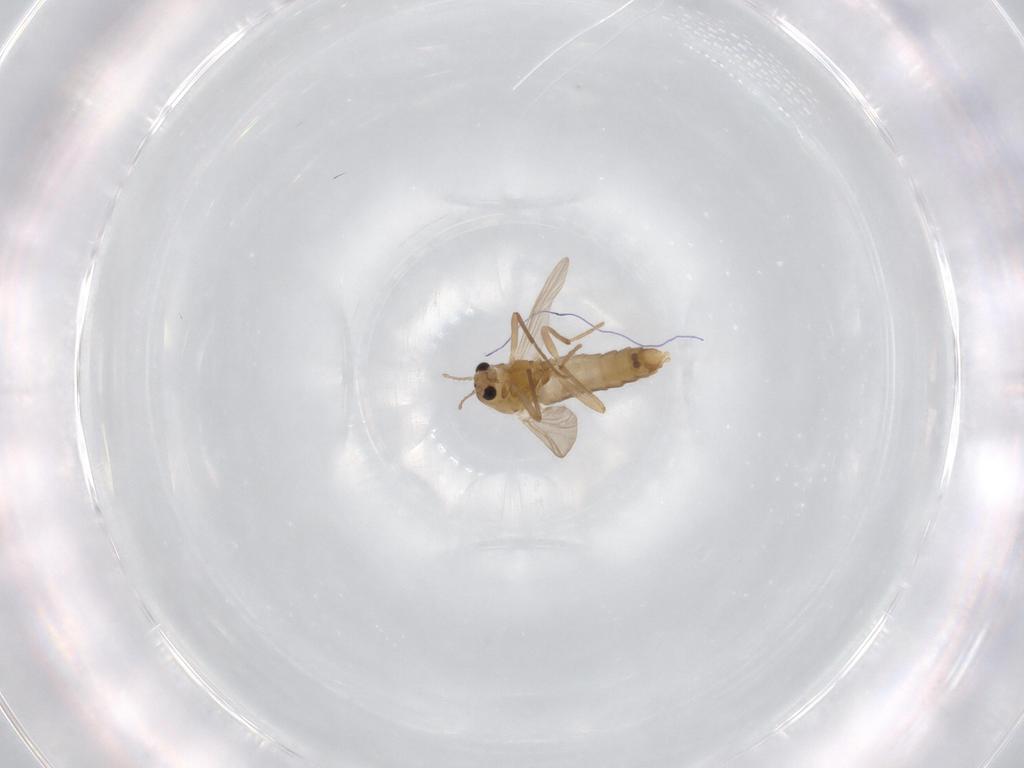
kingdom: Animalia
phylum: Arthropoda
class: Insecta
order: Diptera
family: Chironomidae
